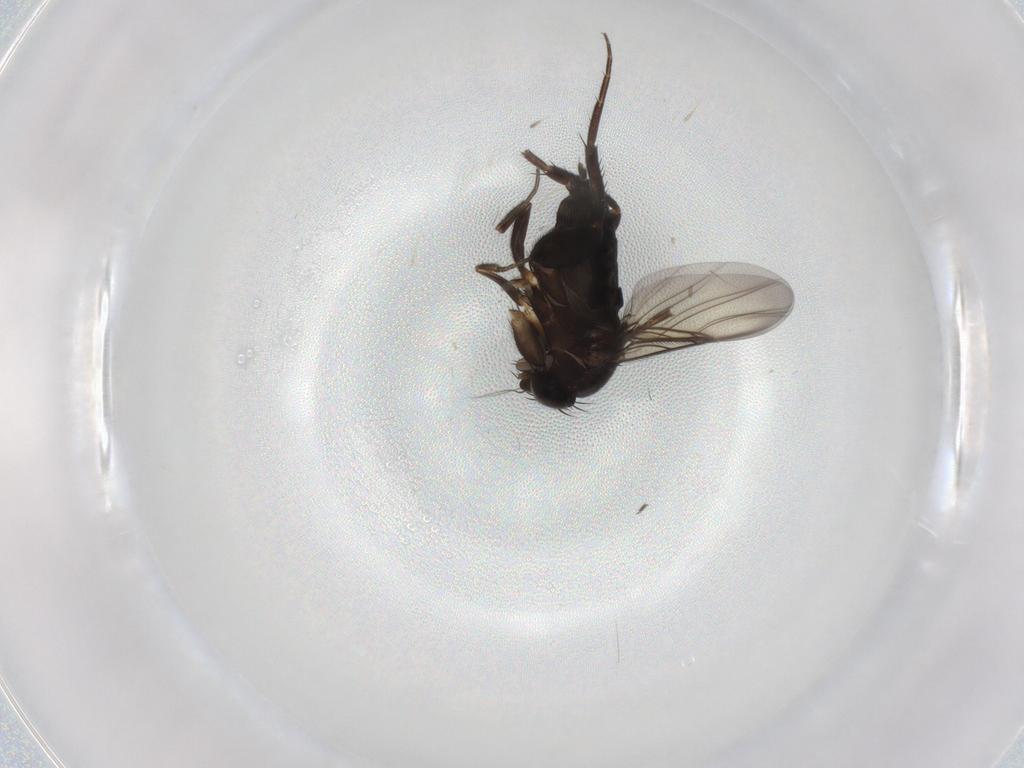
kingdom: Animalia
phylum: Arthropoda
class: Insecta
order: Diptera
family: Phoridae
